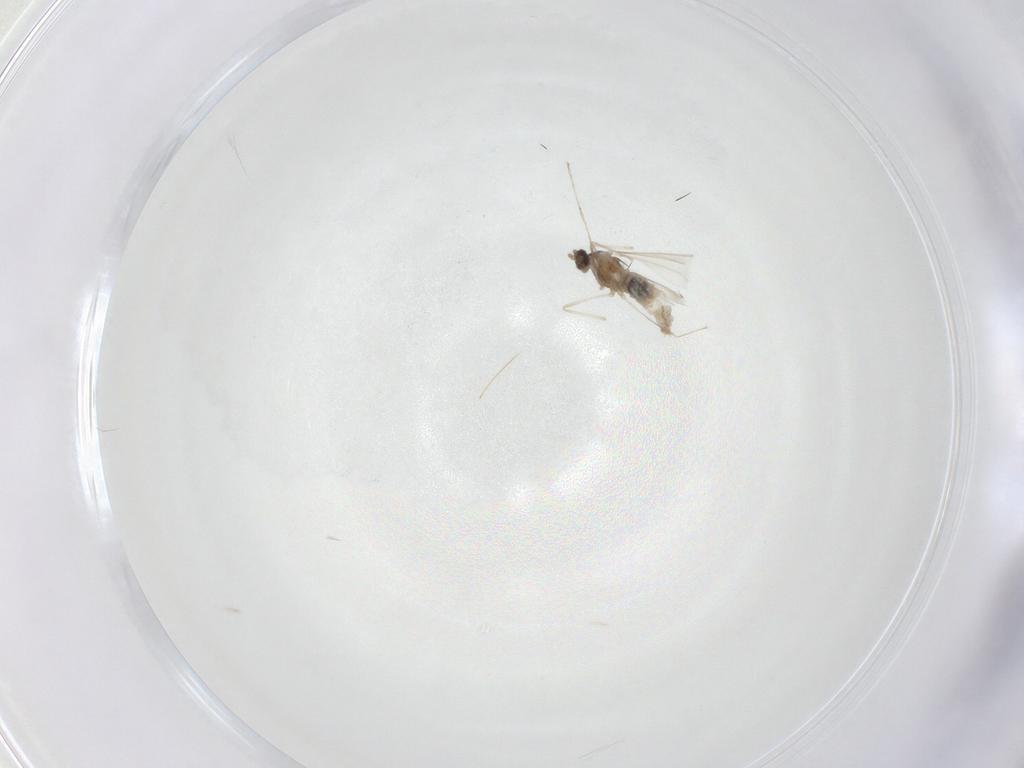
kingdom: Animalia
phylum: Arthropoda
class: Insecta
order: Diptera
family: Cecidomyiidae
